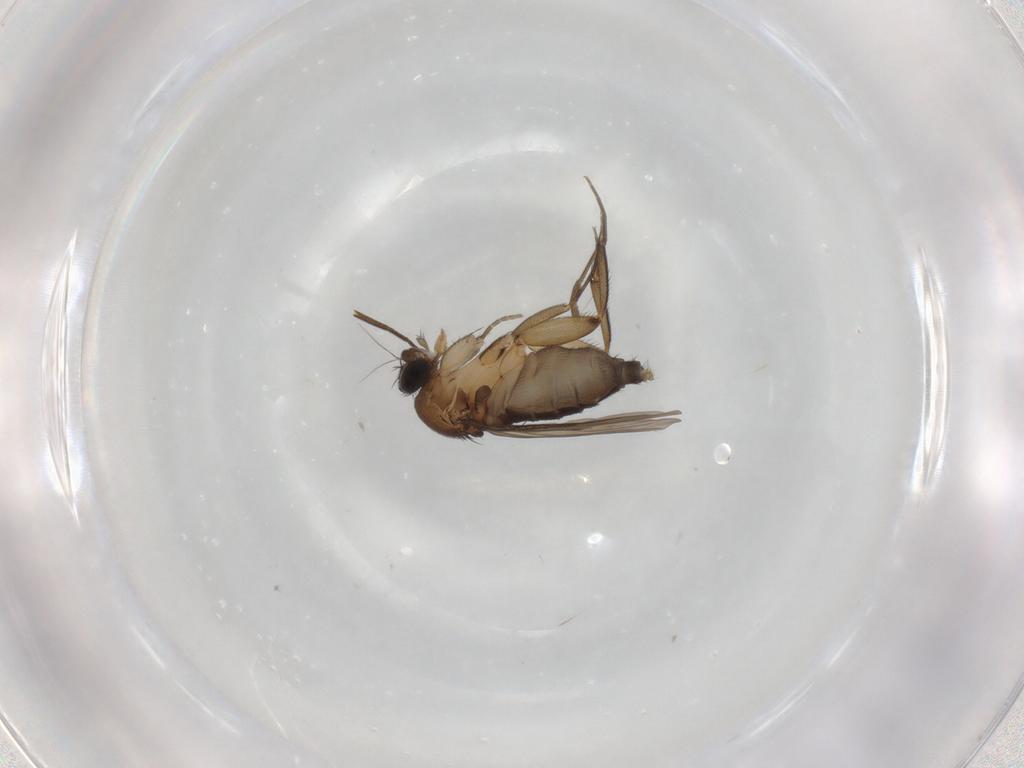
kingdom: Animalia
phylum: Arthropoda
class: Insecta
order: Diptera
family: Phoridae
